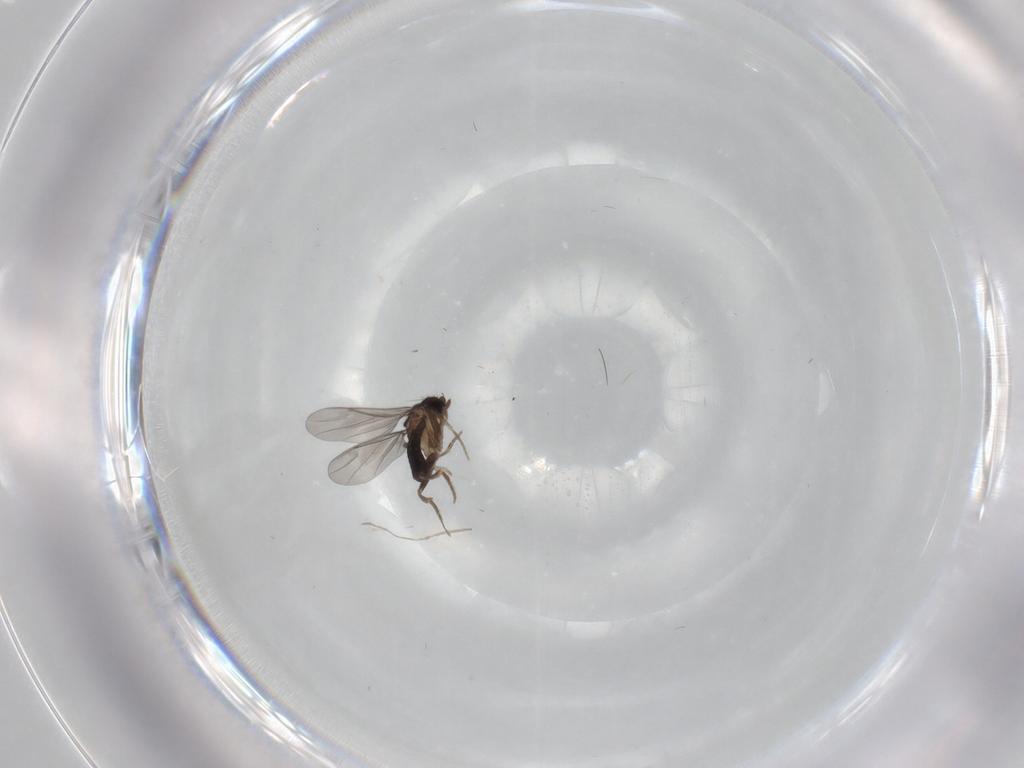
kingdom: Animalia
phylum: Arthropoda
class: Insecta
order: Diptera
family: Chironomidae
